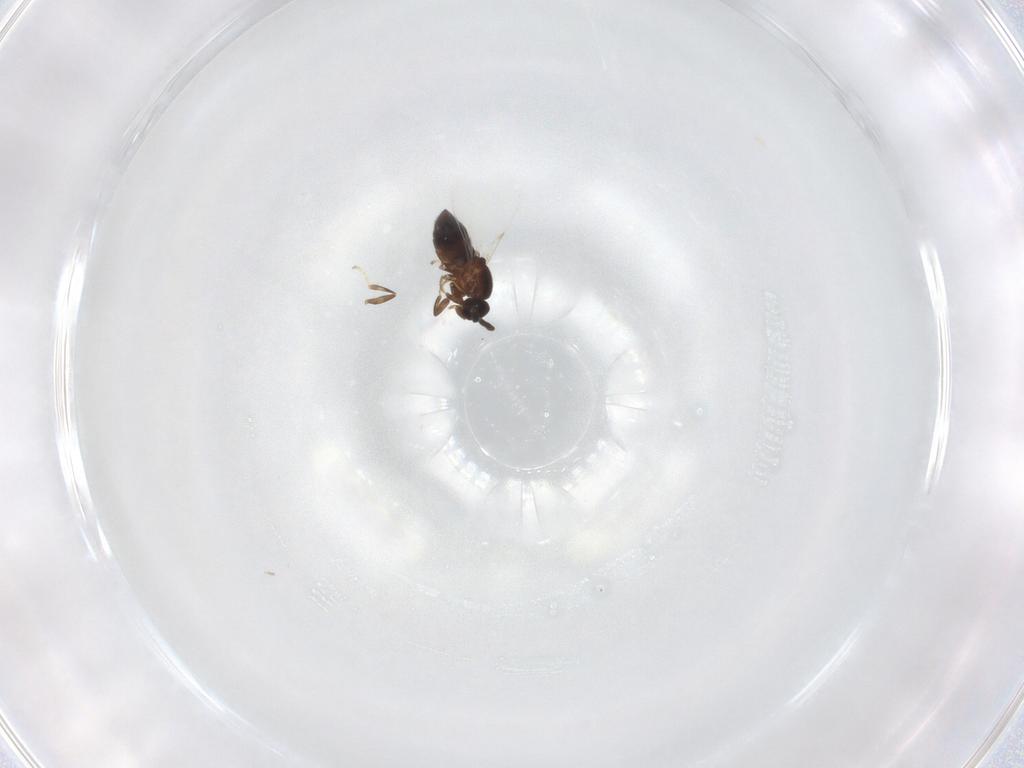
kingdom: Animalia
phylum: Arthropoda
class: Insecta
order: Diptera
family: Scatopsidae
